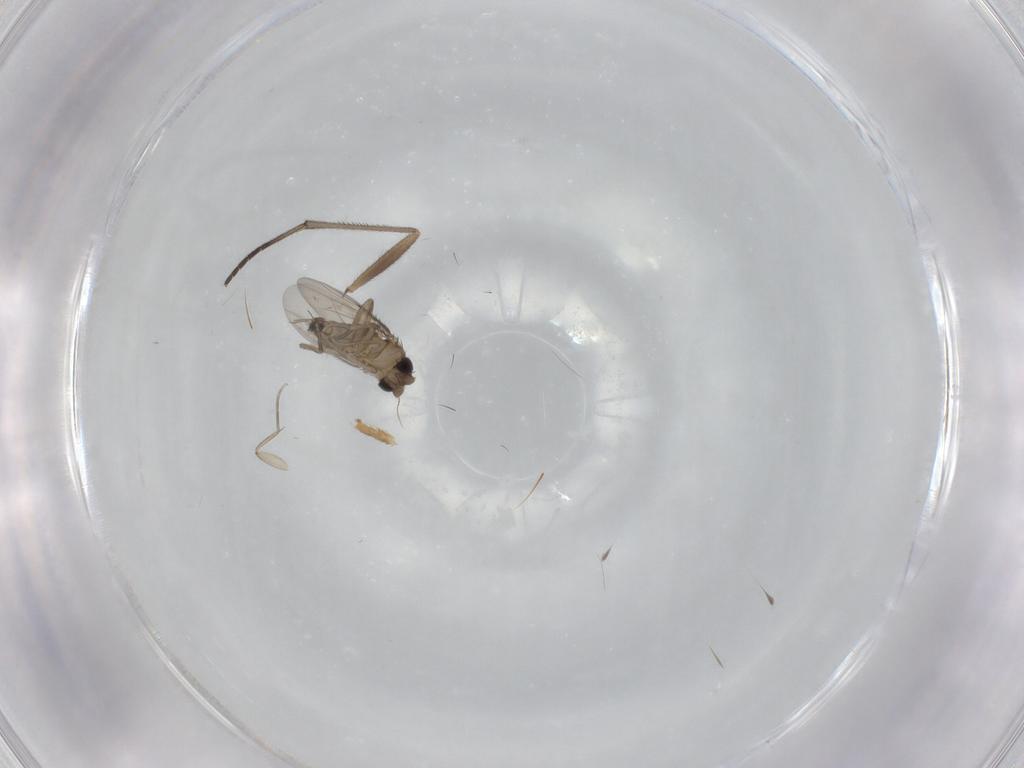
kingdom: Animalia
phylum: Arthropoda
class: Insecta
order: Diptera
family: Phoridae
